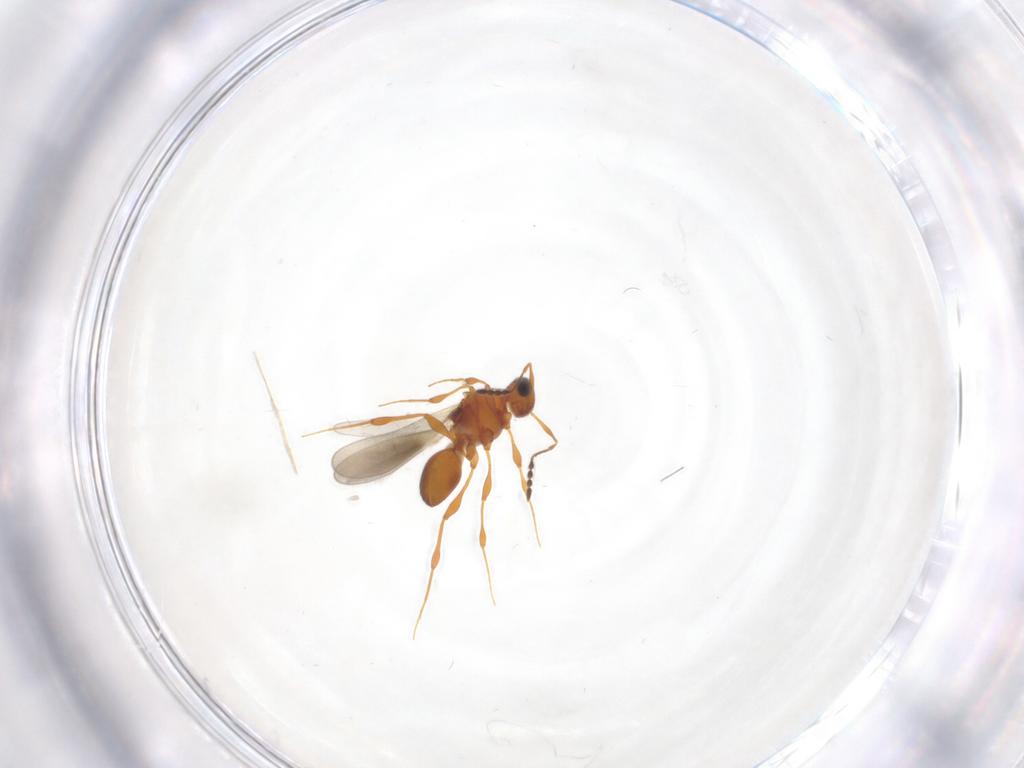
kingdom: Animalia
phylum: Arthropoda
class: Insecta
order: Hymenoptera
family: Figitidae
